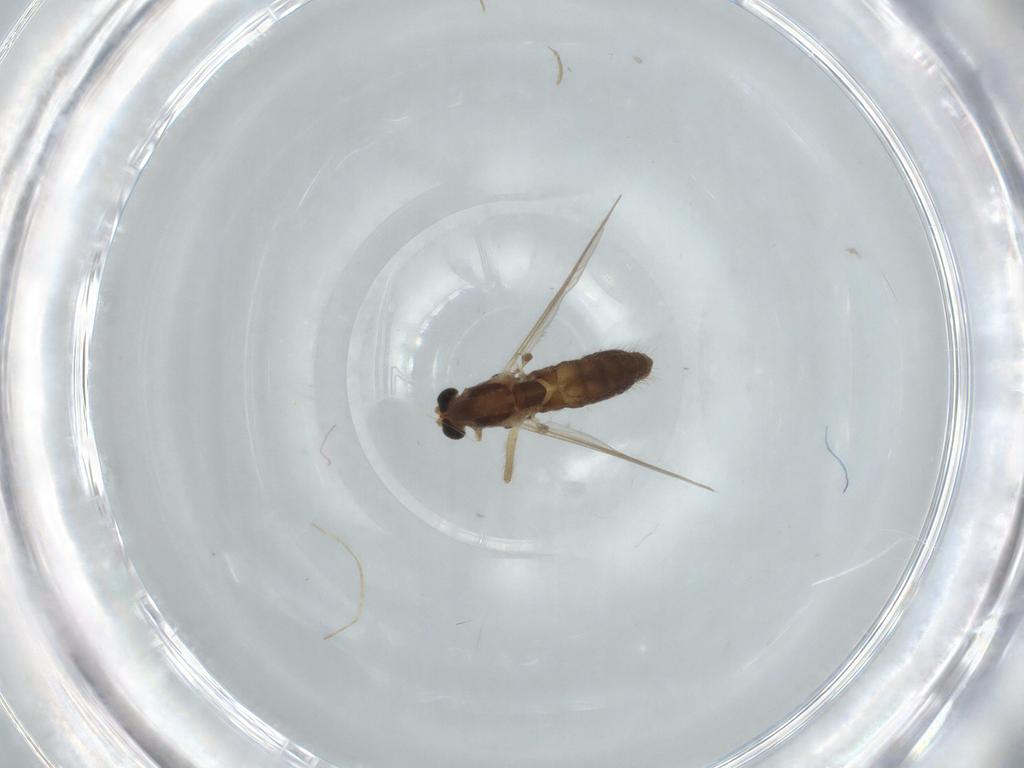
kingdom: Animalia
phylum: Arthropoda
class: Insecta
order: Diptera
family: Chironomidae
